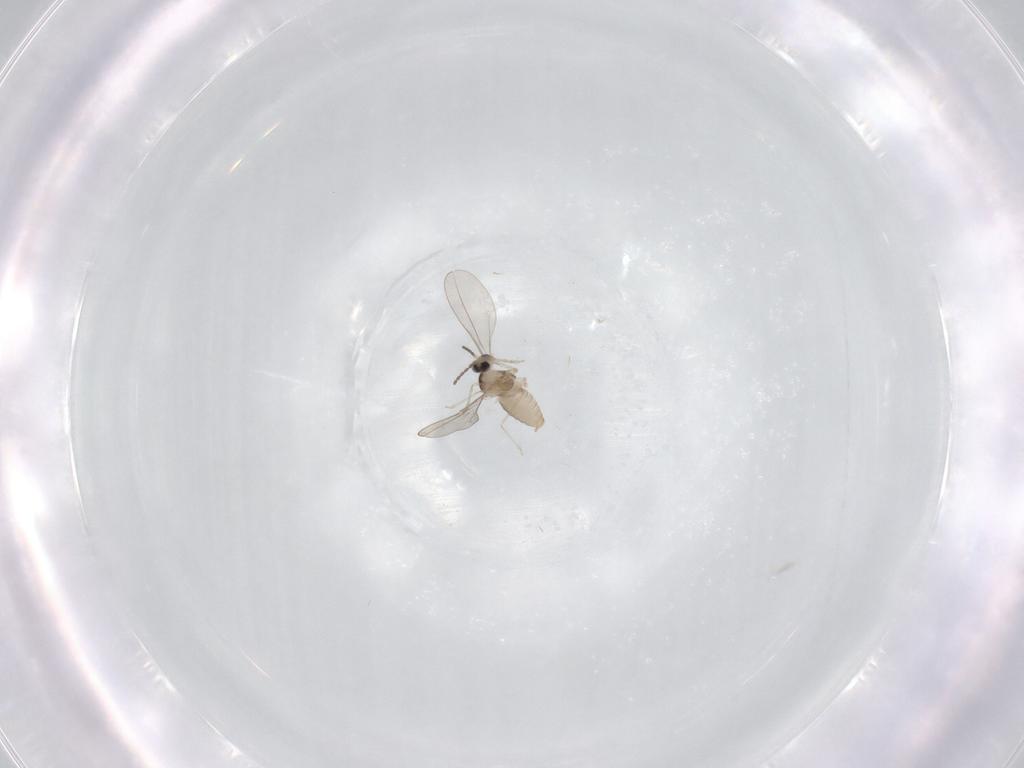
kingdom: Animalia
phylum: Arthropoda
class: Insecta
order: Diptera
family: Cecidomyiidae
